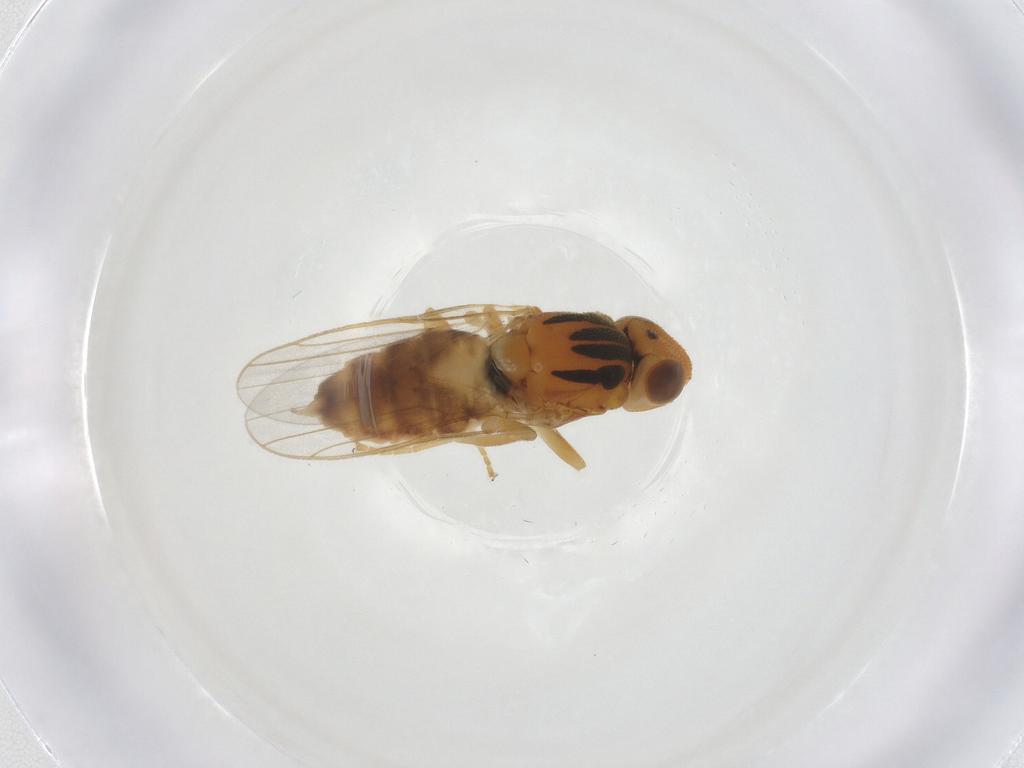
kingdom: Animalia
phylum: Arthropoda
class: Insecta
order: Diptera
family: Chloropidae
